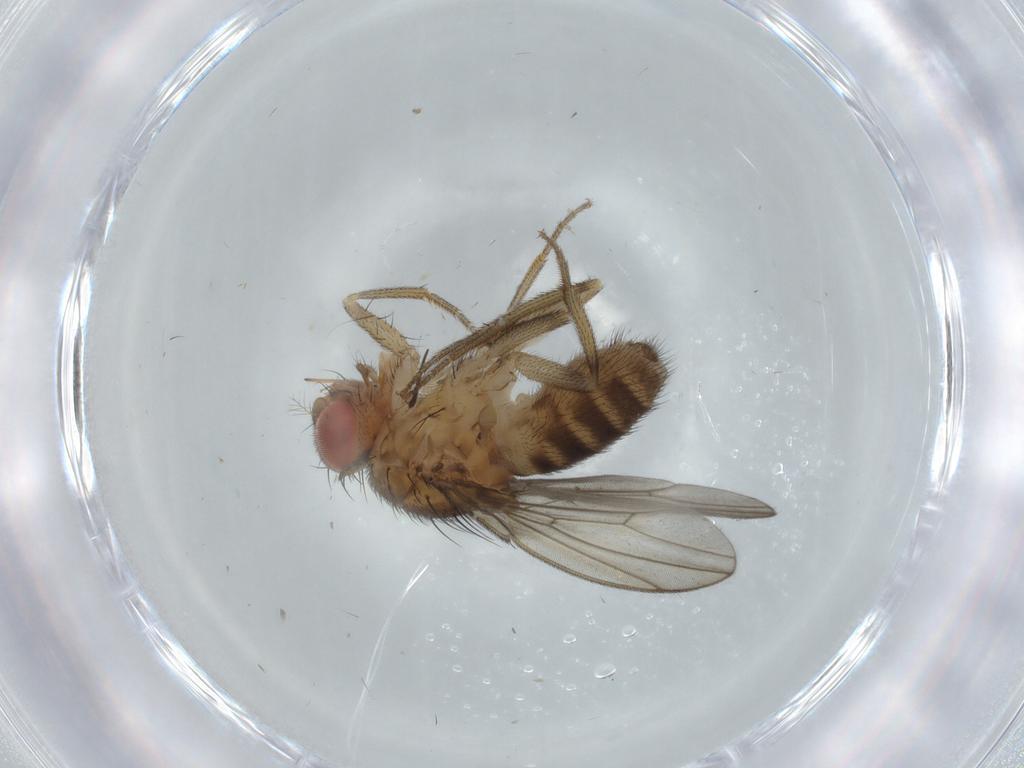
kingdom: Animalia
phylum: Arthropoda
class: Insecta
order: Diptera
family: Drosophilidae
